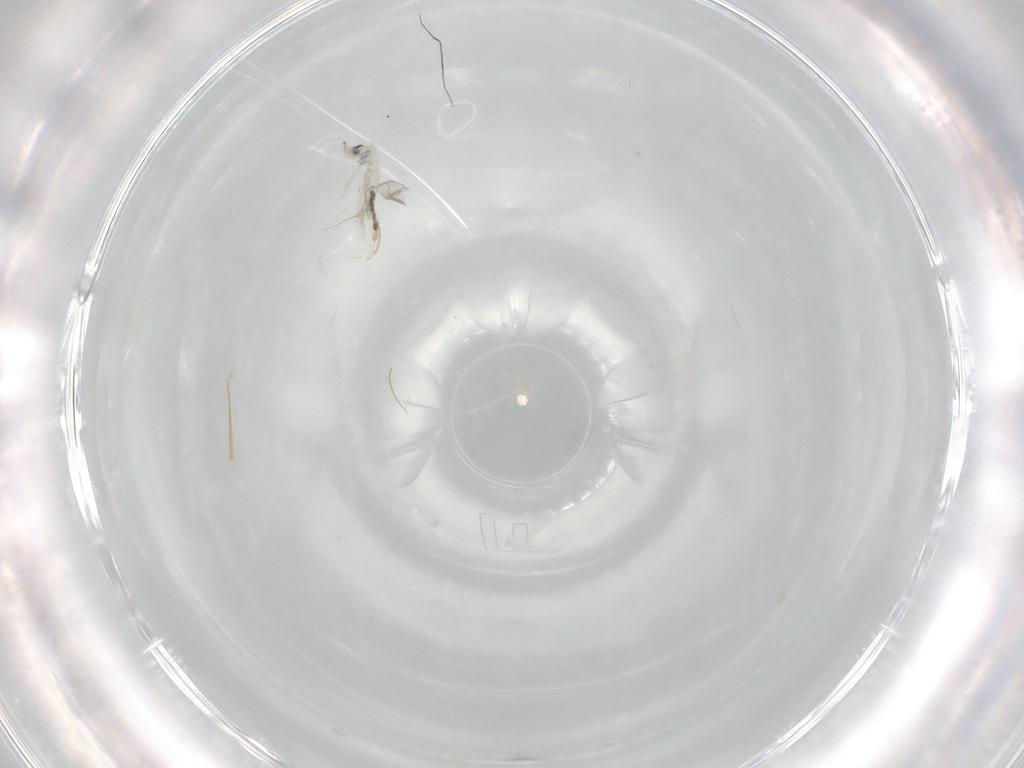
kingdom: Animalia
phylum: Arthropoda
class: Collembola
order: Entomobryomorpha
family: Entomobryidae
